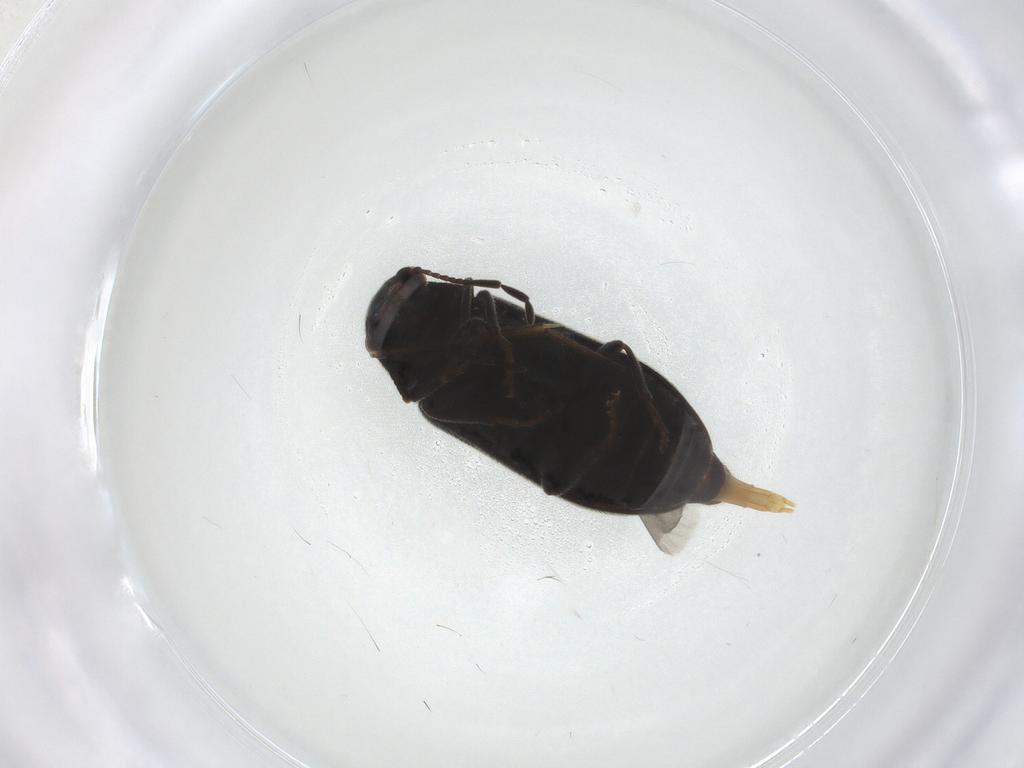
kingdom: Animalia
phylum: Arthropoda
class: Insecta
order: Coleoptera
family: Ptinidae
